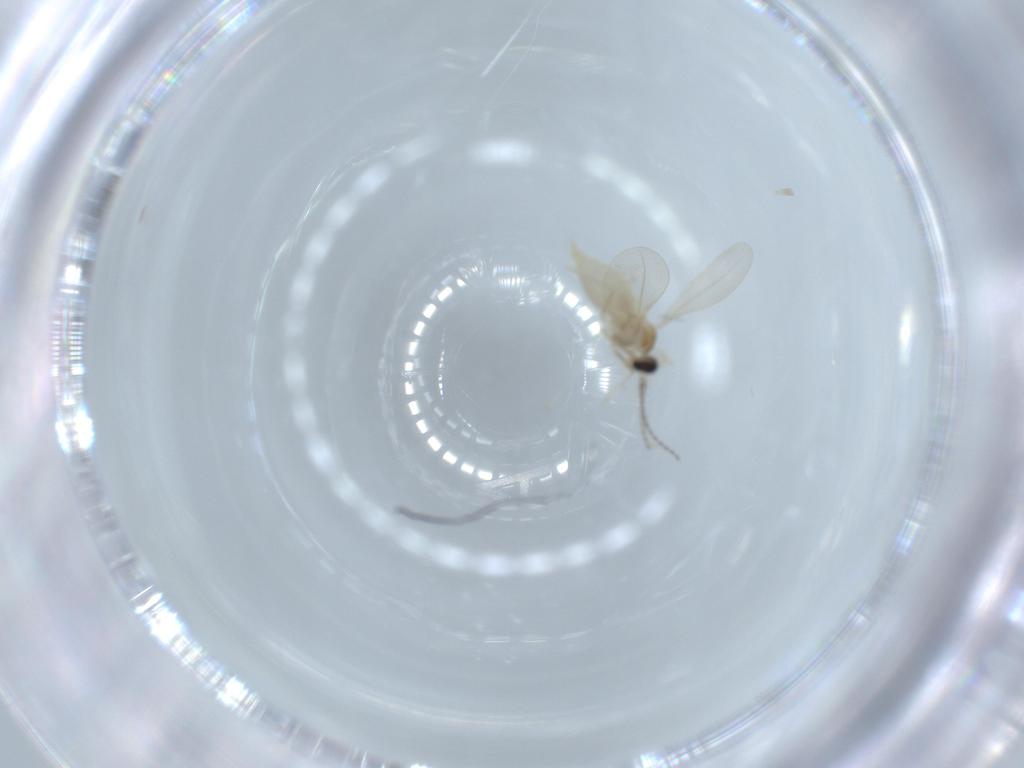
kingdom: Animalia
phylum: Arthropoda
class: Insecta
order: Diptera
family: Cecidomyiidae
